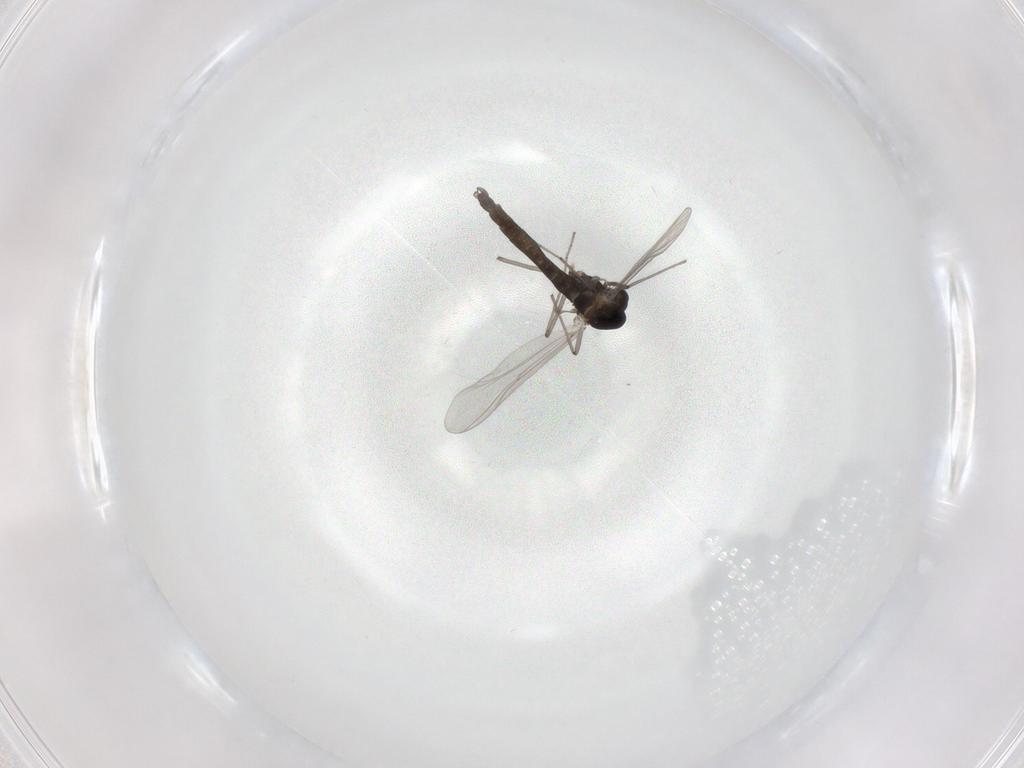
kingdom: Animalia
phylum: Arthropoda
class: Insecta
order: Diptera
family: Chironomidae
